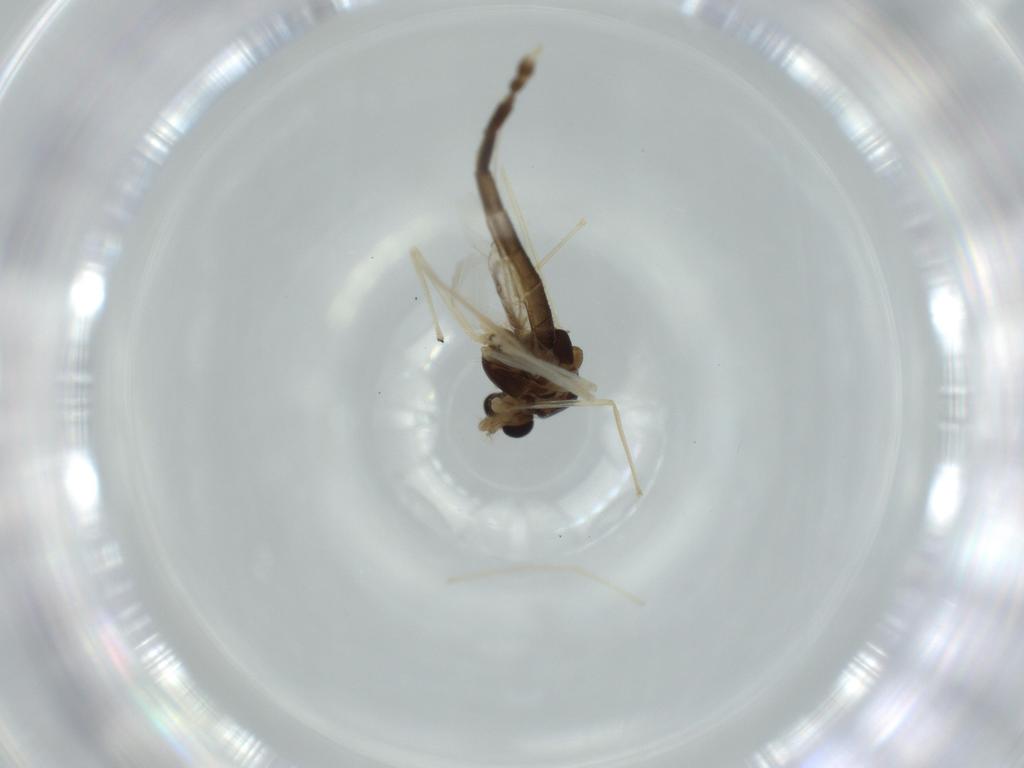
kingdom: Animalia
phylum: Arthropoda
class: Insecta
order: Diptera
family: Chironomidae
